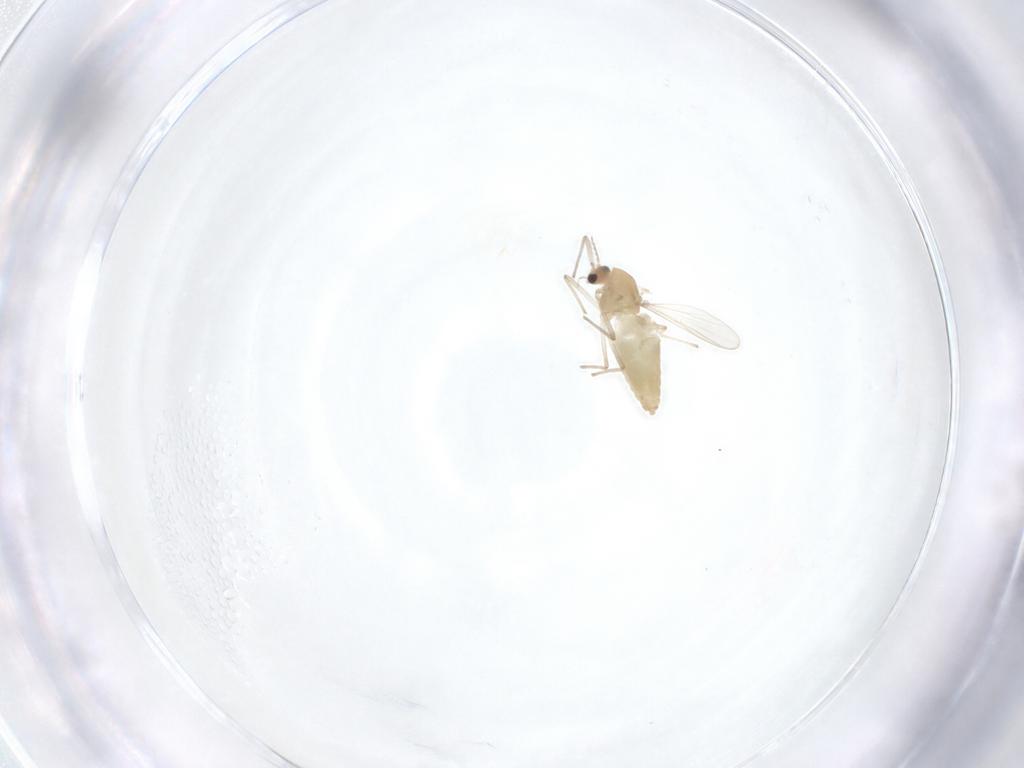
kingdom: Animalia
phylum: Arthropoda
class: Insecta
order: Diptera
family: Chironomidae
